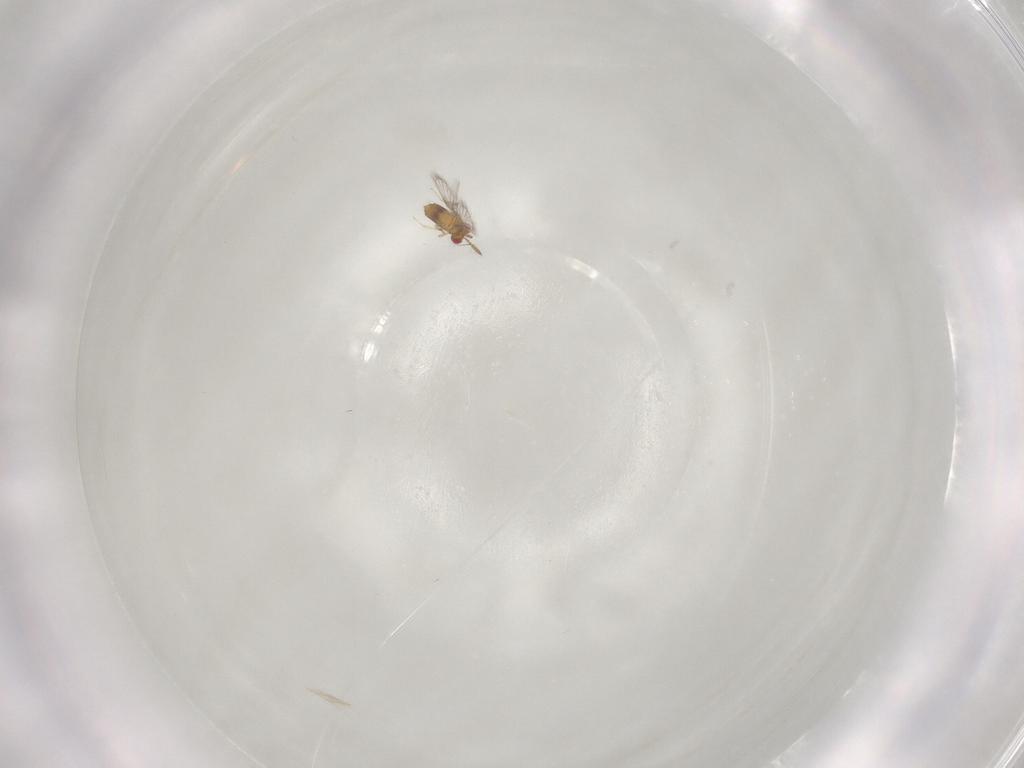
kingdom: Animalia
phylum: Arthropoda
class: Insecta
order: Hymenoptera
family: Trichogrammatidae
